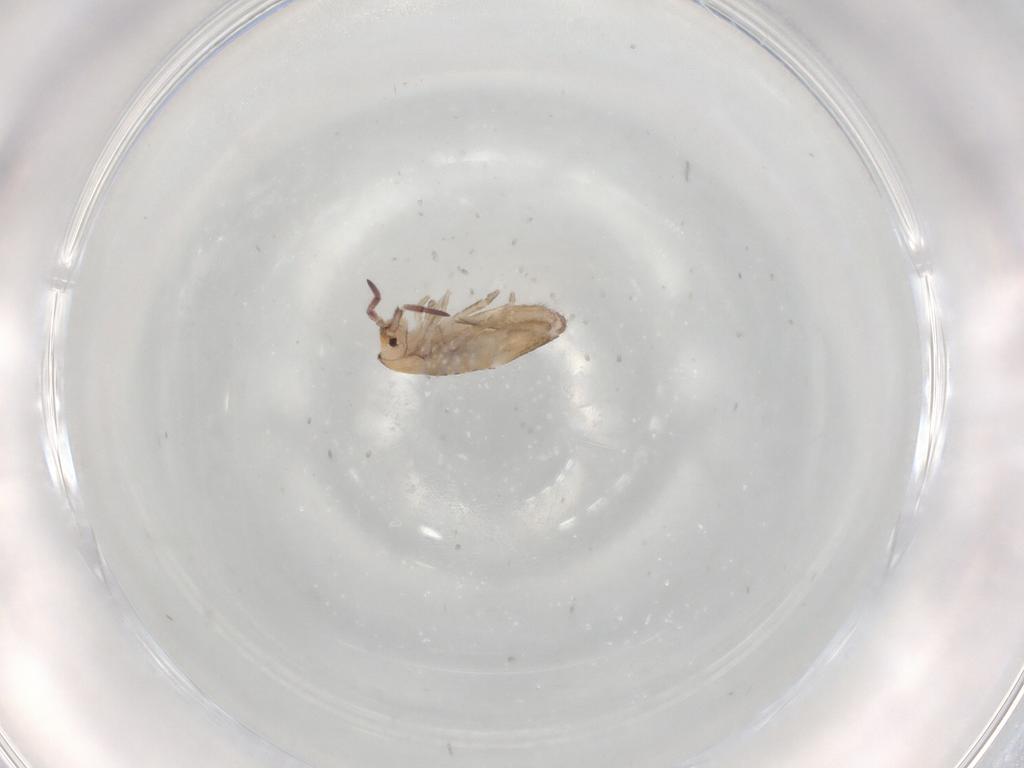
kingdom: Animalia
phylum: Arthropoda
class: Collembola
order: Entomobryomorpha
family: Entomobryidae
